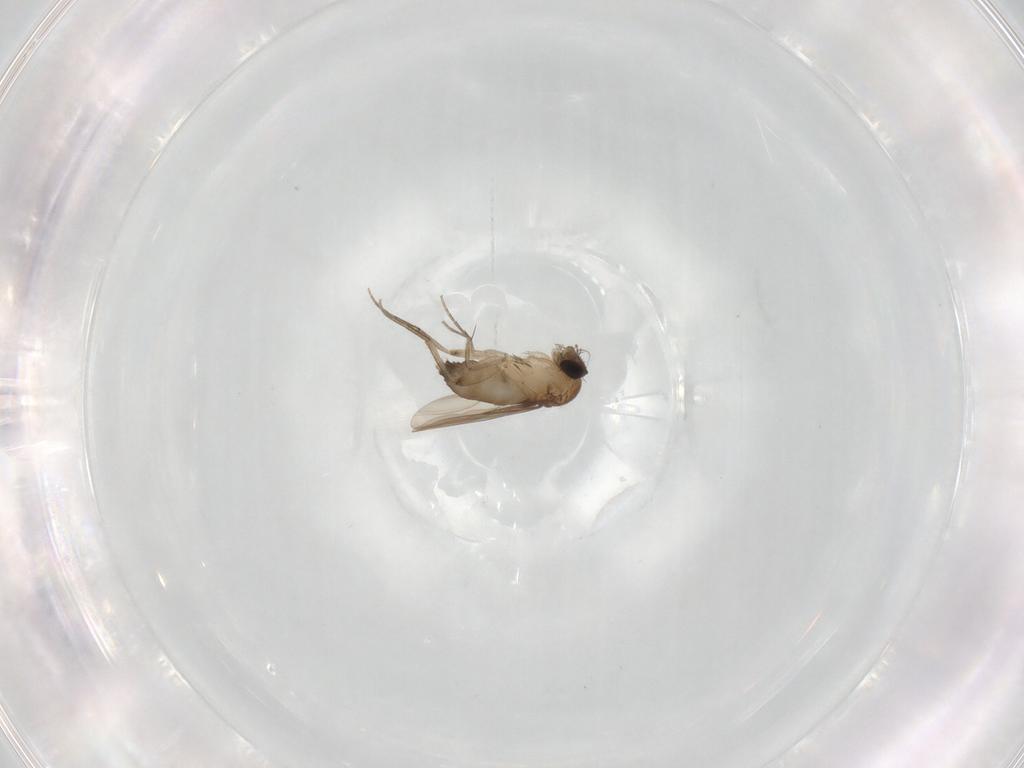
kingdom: Animalia
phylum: Arthropoda
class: Insecta
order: Diptera
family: Phoridae
